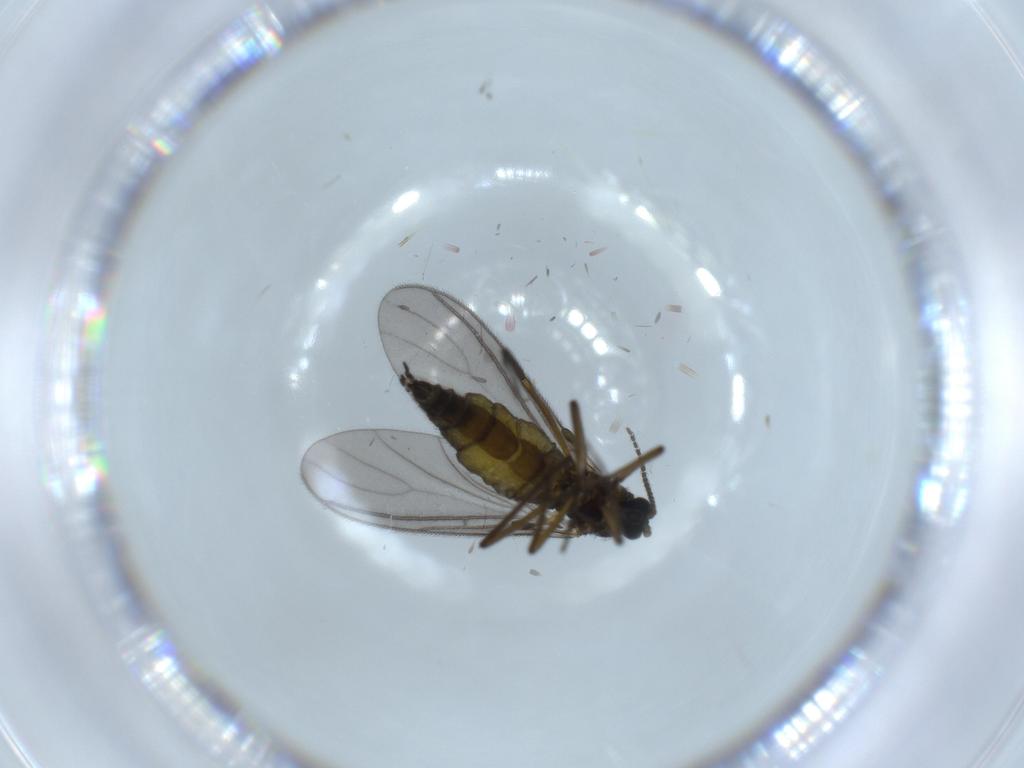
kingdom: Animalia
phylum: Arthropoda
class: Insecta
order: Diptera
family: Sciaridae
